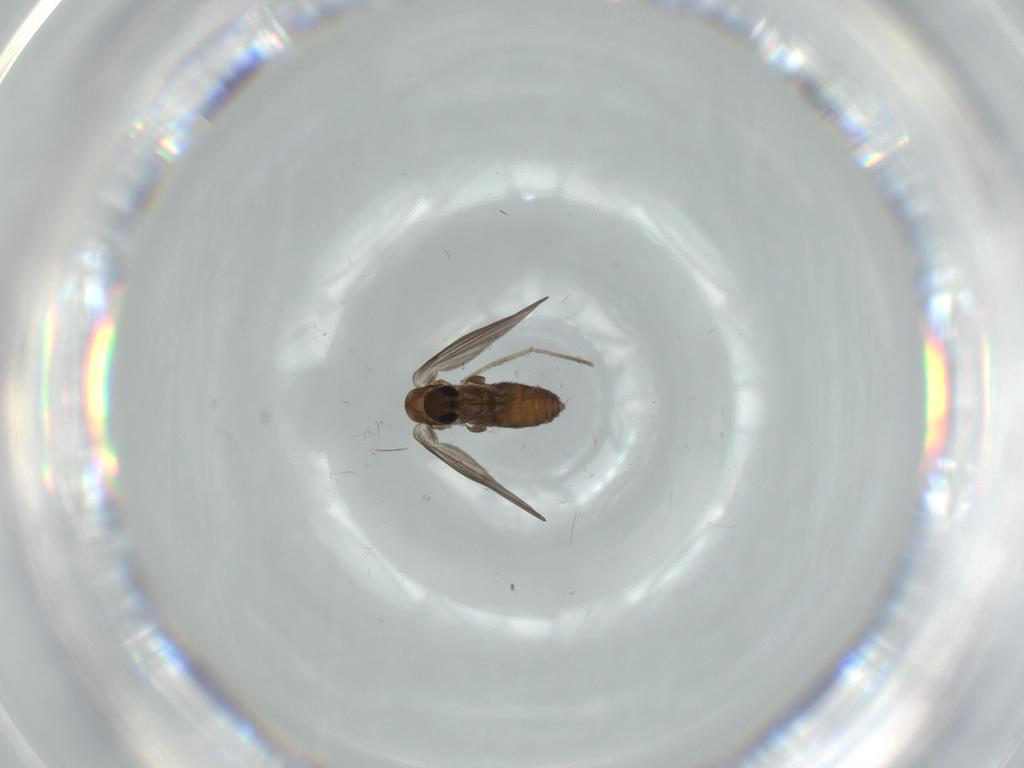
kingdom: Animalia
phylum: Arthropoda
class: Insecta
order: Diptera
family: Psychodidae
